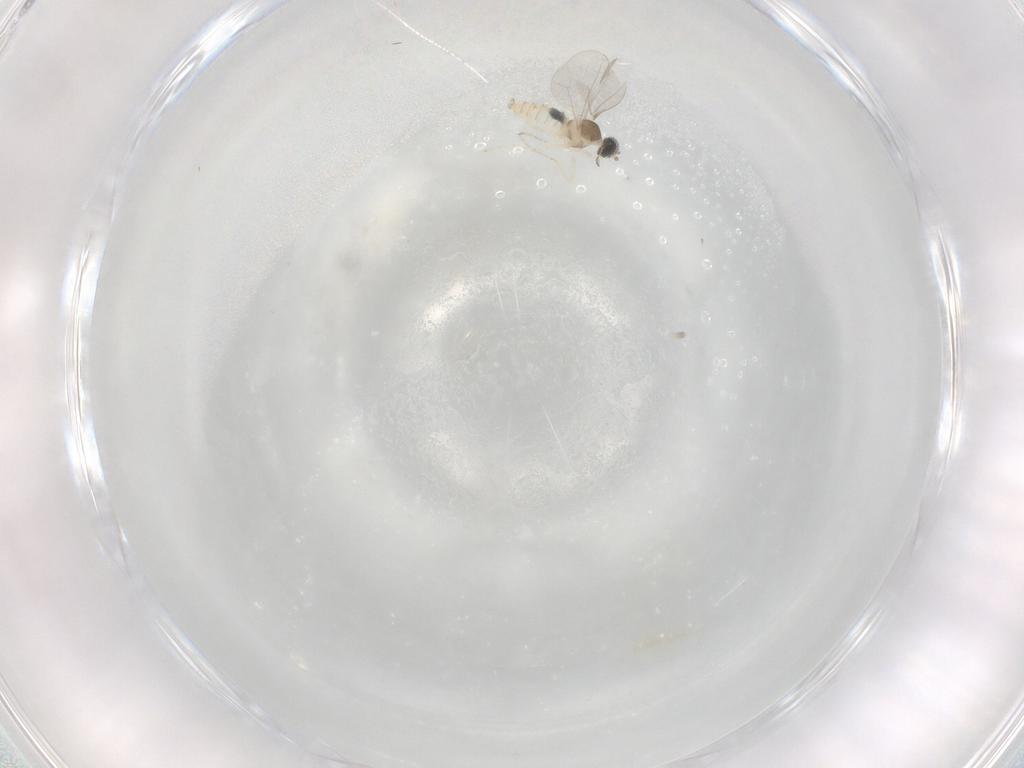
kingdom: Animalia
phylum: Arthropoda
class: Insecta
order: Diptera
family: Cecidomyiidae
